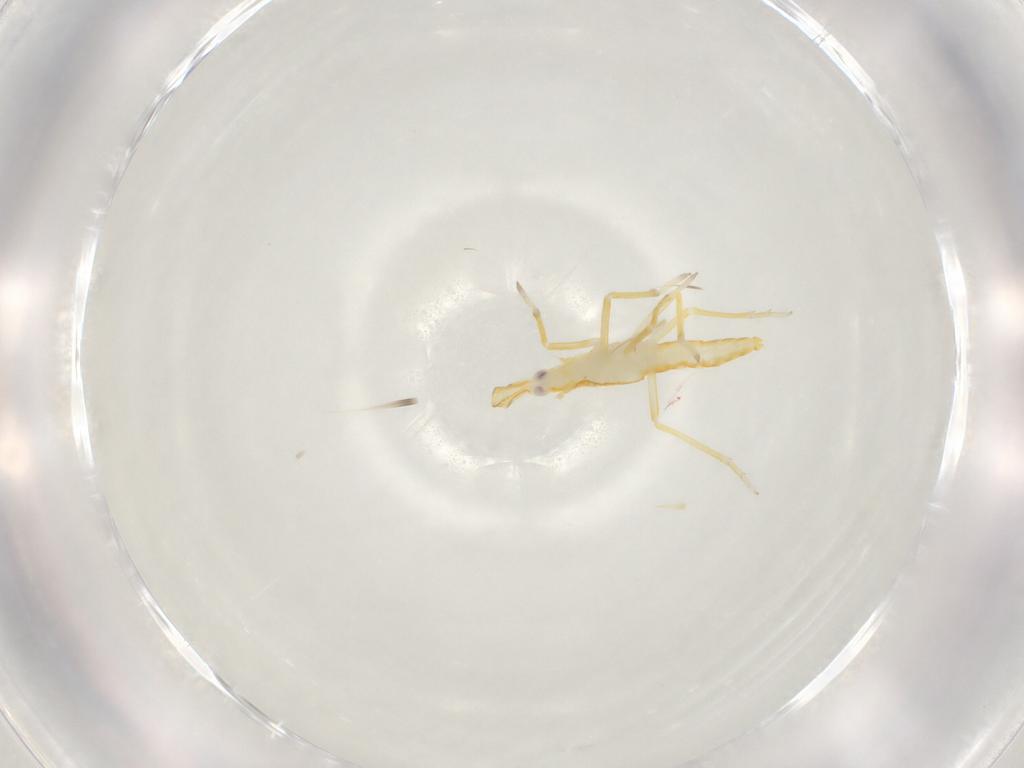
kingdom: Animalia
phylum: Arthropoda
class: Insecta
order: Hemiptera
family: Dictyopharidae
